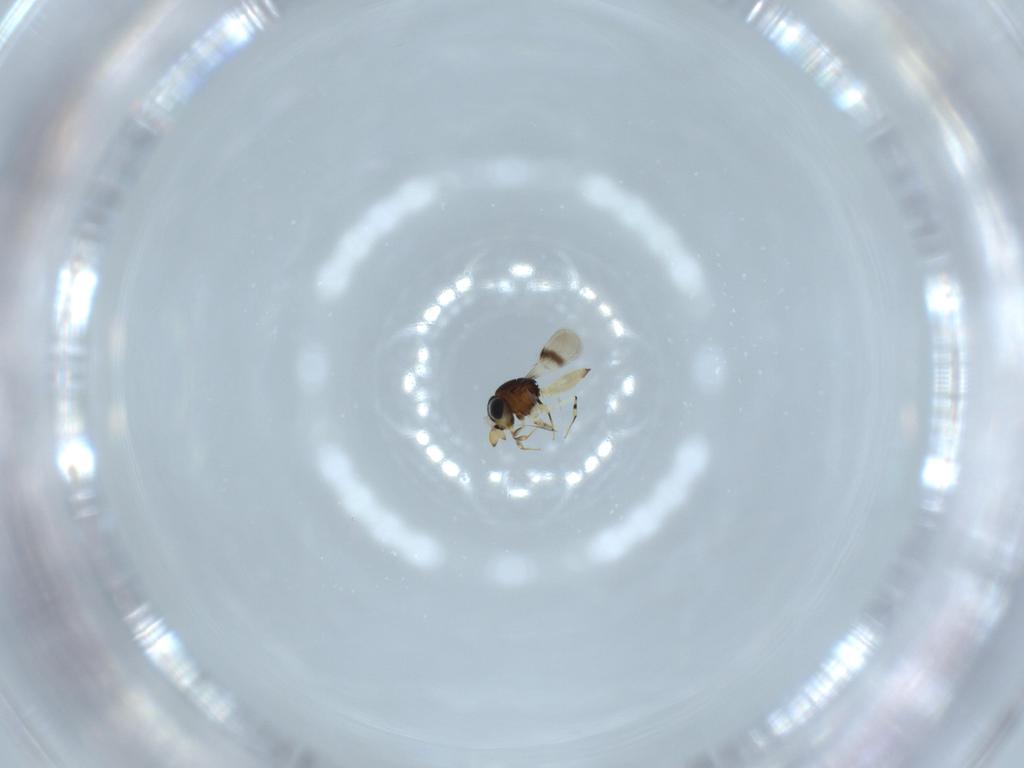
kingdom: Animalia
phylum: Arthropoda
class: Insecta
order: Hymenoptera
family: Scelionidae
